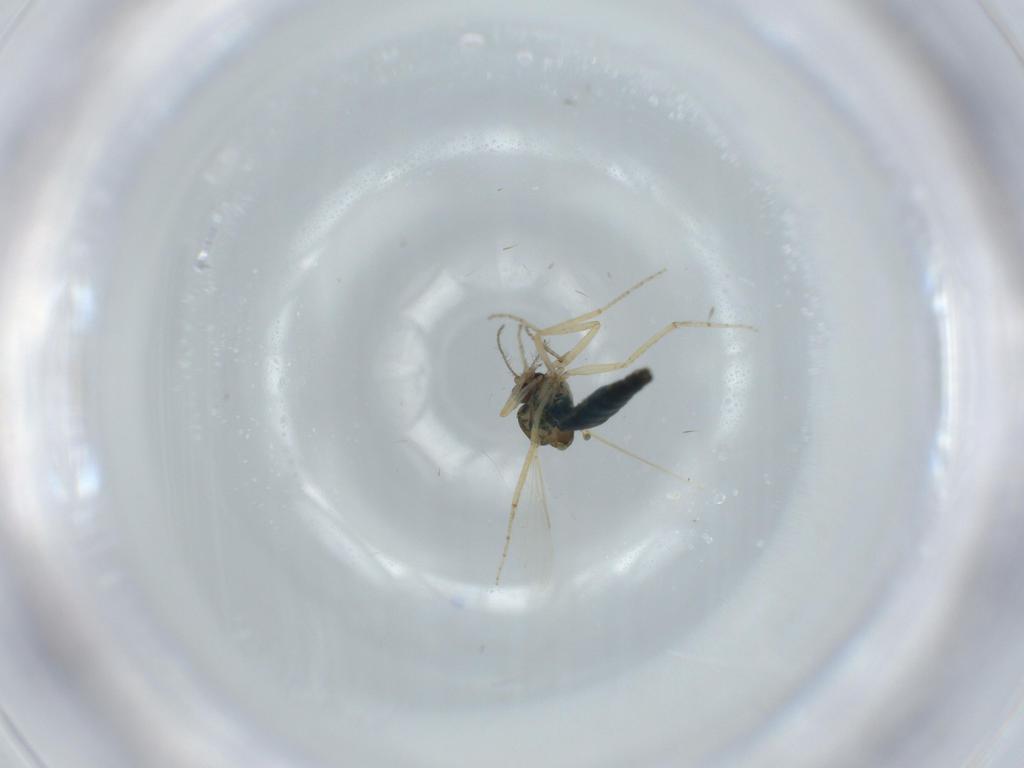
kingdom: Animalia
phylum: Arthropoda
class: Insecta
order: Diptera
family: Ceratopogonidae
